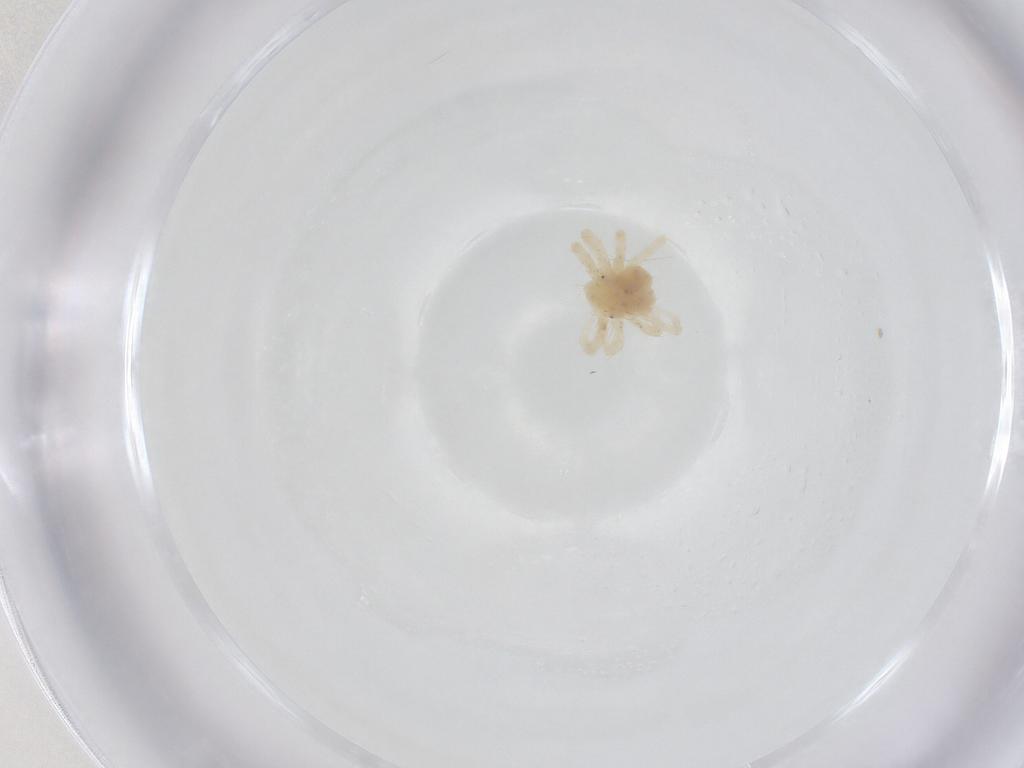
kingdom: Animalia
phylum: Arthropoda
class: Arachnida
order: Trombidiformes
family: Anystidae
